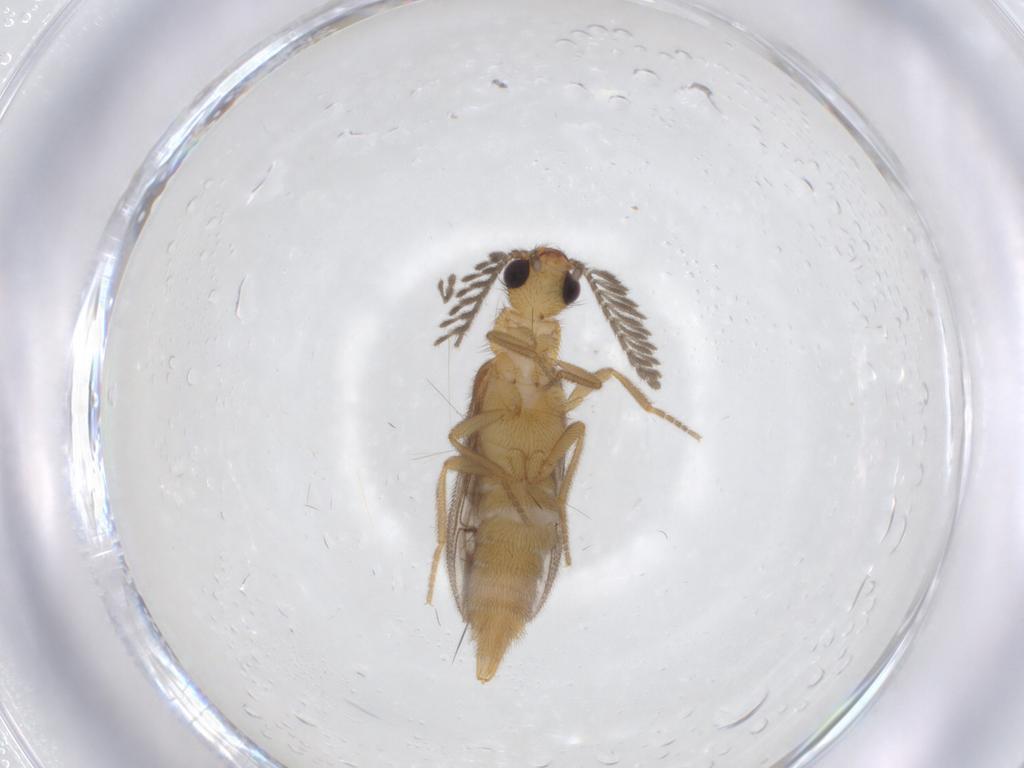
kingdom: Animalia
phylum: Arthropoda
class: Insecta
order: Coleoptera
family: Phengodidae
